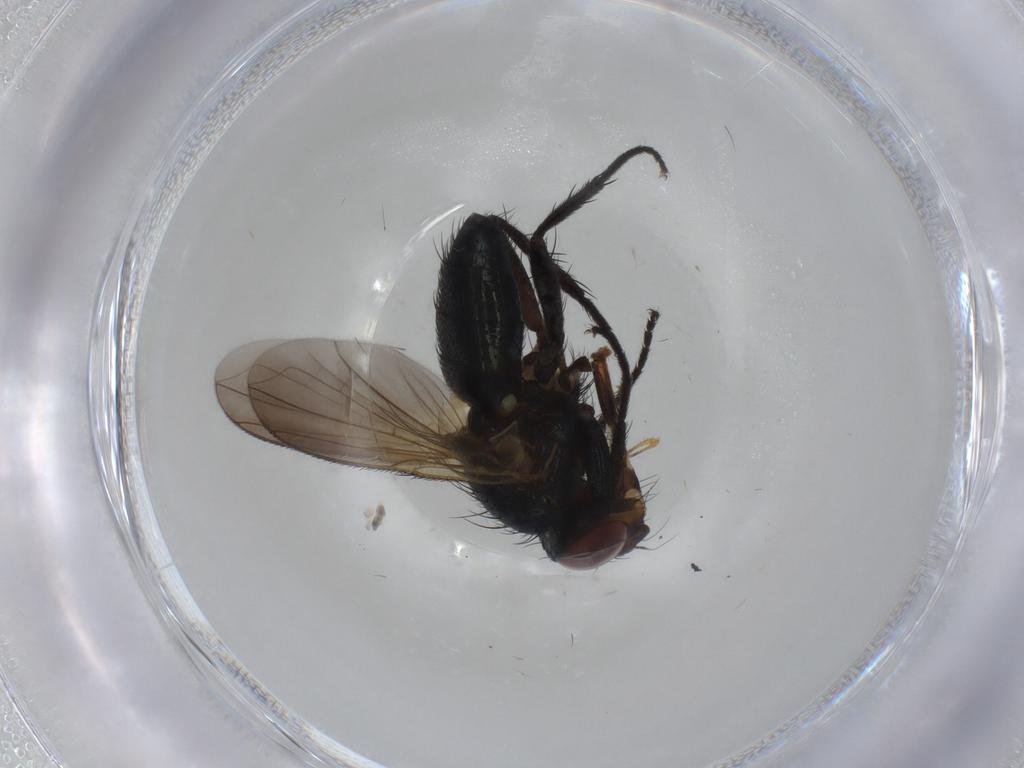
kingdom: Animalia
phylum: Arthropoda
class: Insecta
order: Diptera
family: Calliphoridae
